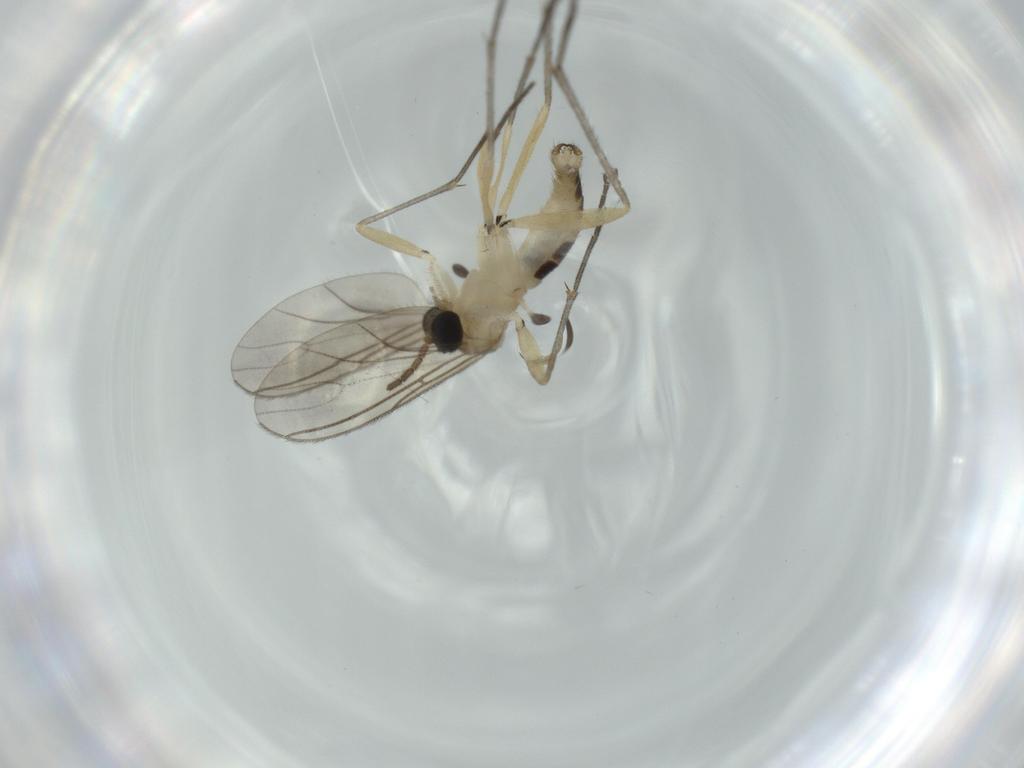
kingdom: Animalia
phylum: Arthropoda
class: Insecta
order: Diptera
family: Sciaridae
